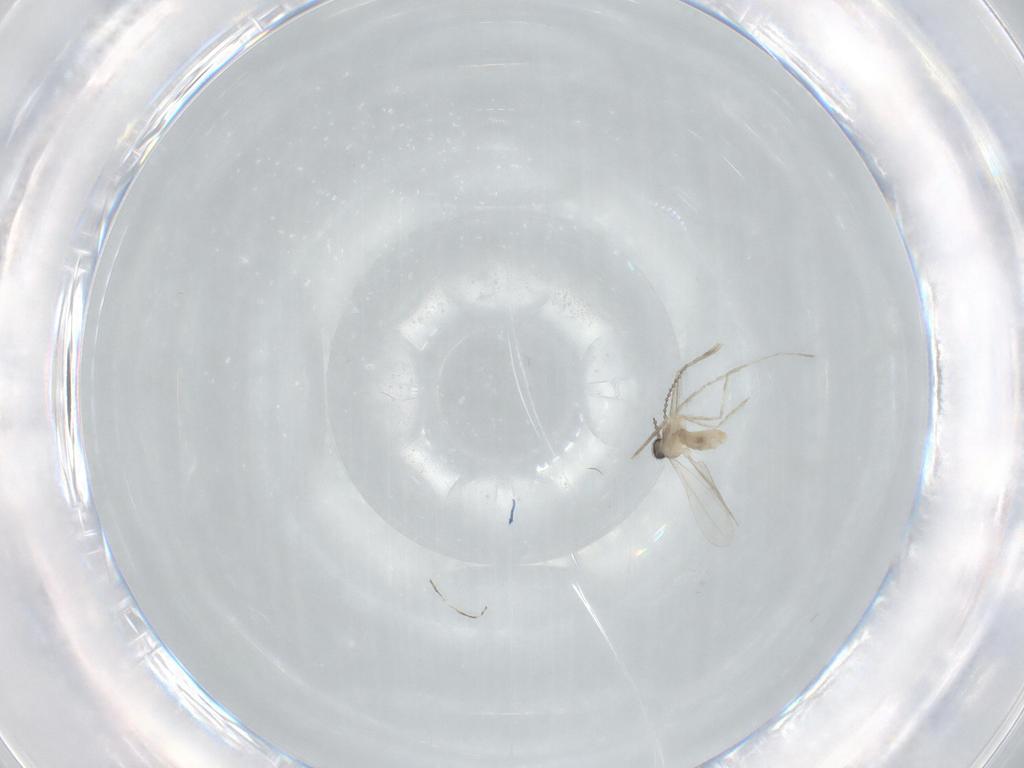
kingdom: Animalia
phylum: Arthropoda
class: Insecta
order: Diptera
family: Cecidomyiidae
